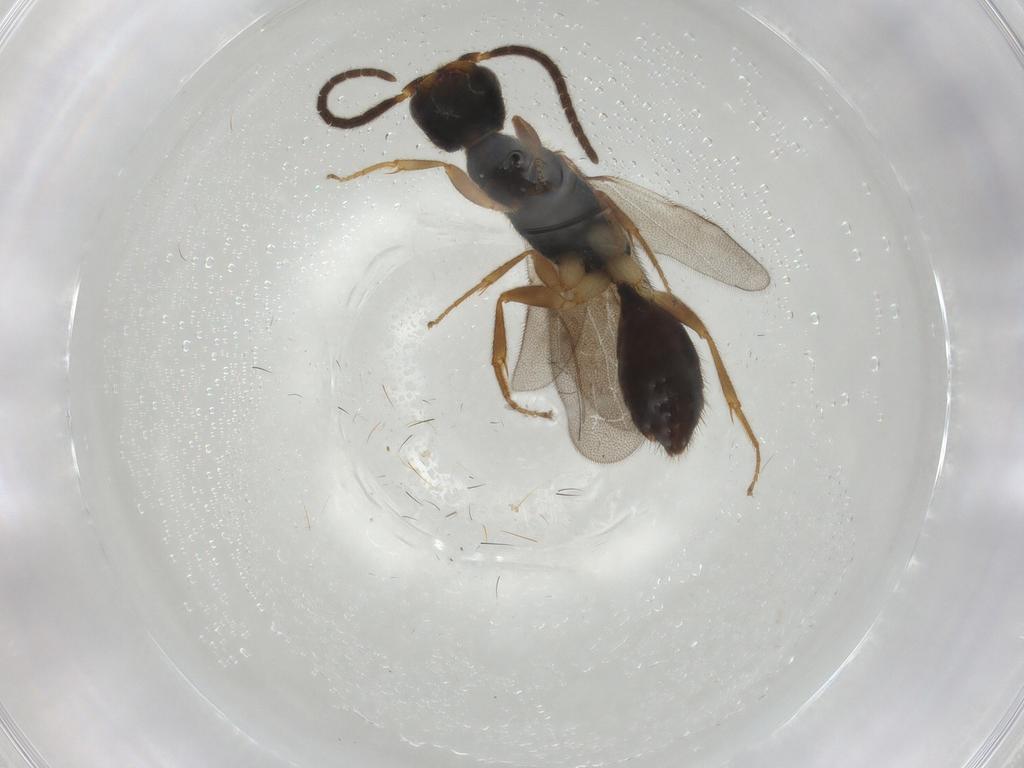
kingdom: Animalia
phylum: Arthropoda
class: Insecta
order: Hymenoptera
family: Bethylidae
